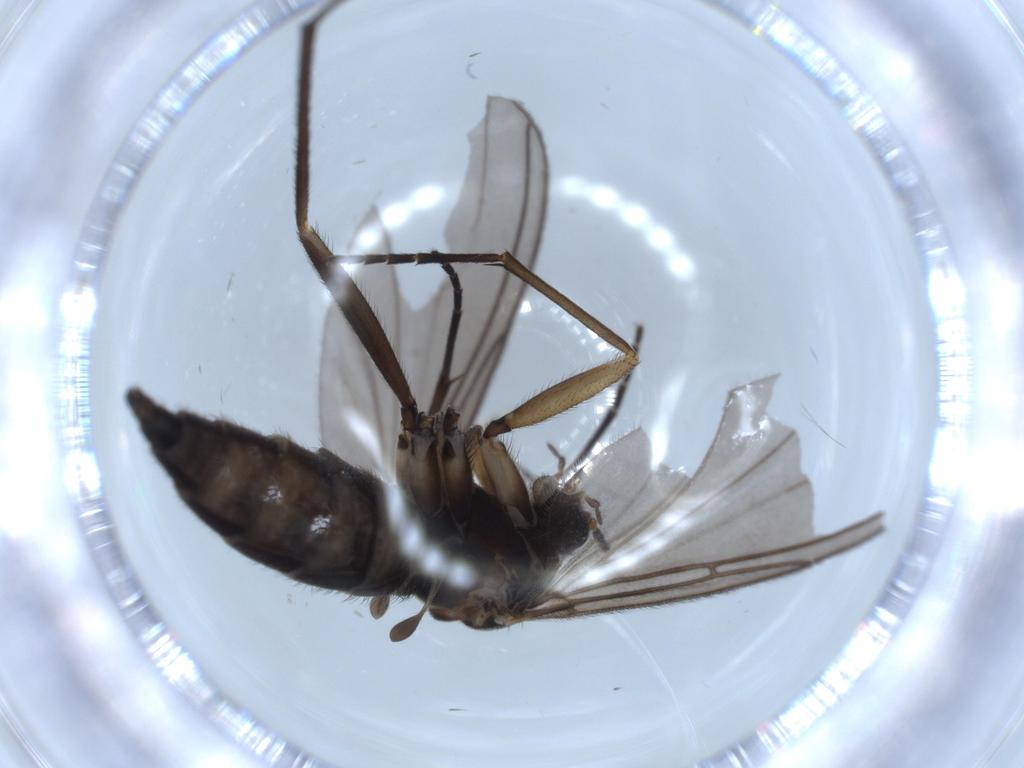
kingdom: Animalia
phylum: Arthropoda
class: Insecta
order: Diptera
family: Sciaridae
